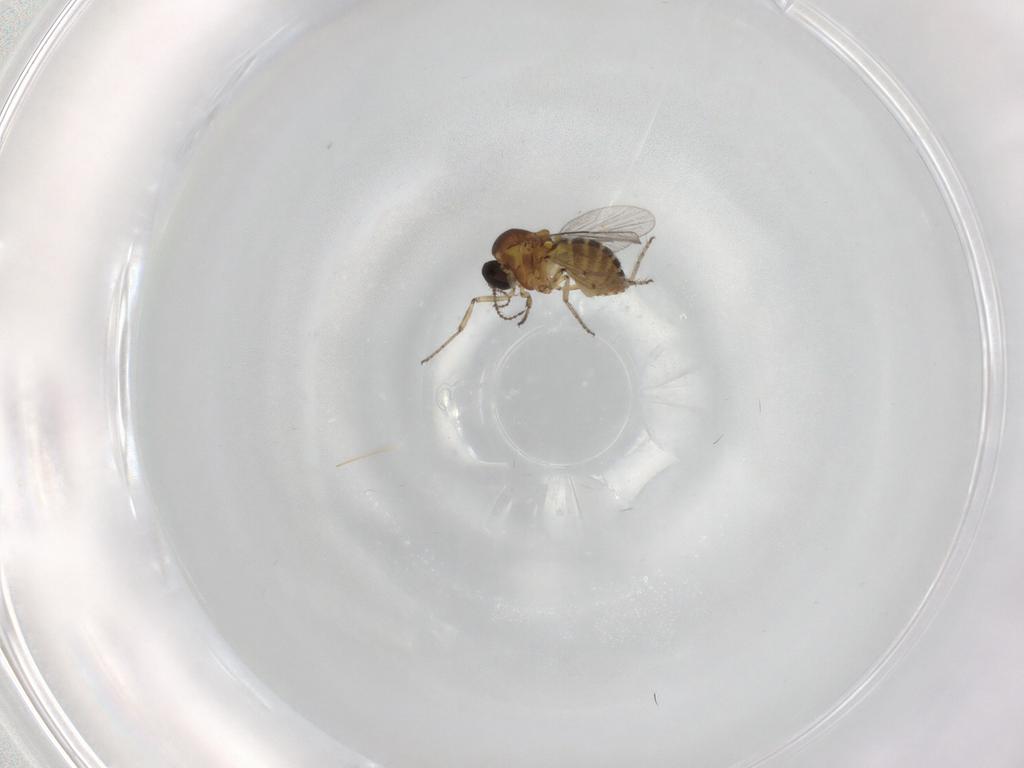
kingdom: Animalia
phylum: Arthropoda
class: Insecta
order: Diptera
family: Ceratopogonidae
